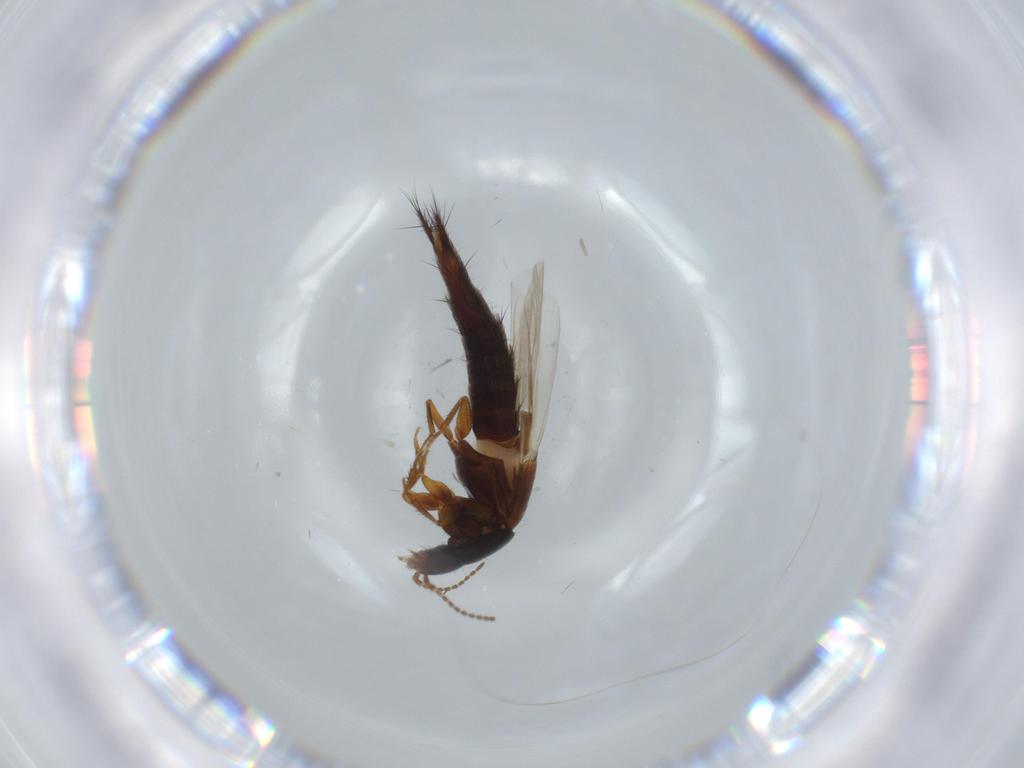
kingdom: Animalia
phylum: Arthropoda
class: Insecta
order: Coleoptera
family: Staphylinidae
